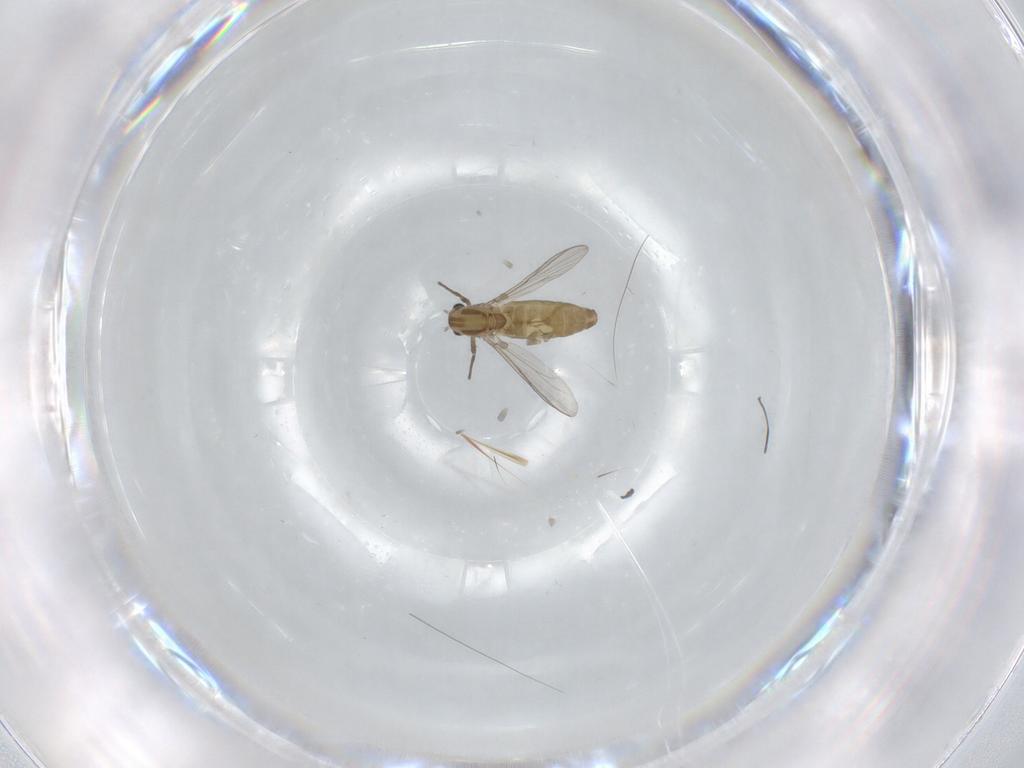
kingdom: Animalia
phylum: Arthropoda
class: Insecta
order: Diptera
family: Chironomidae
